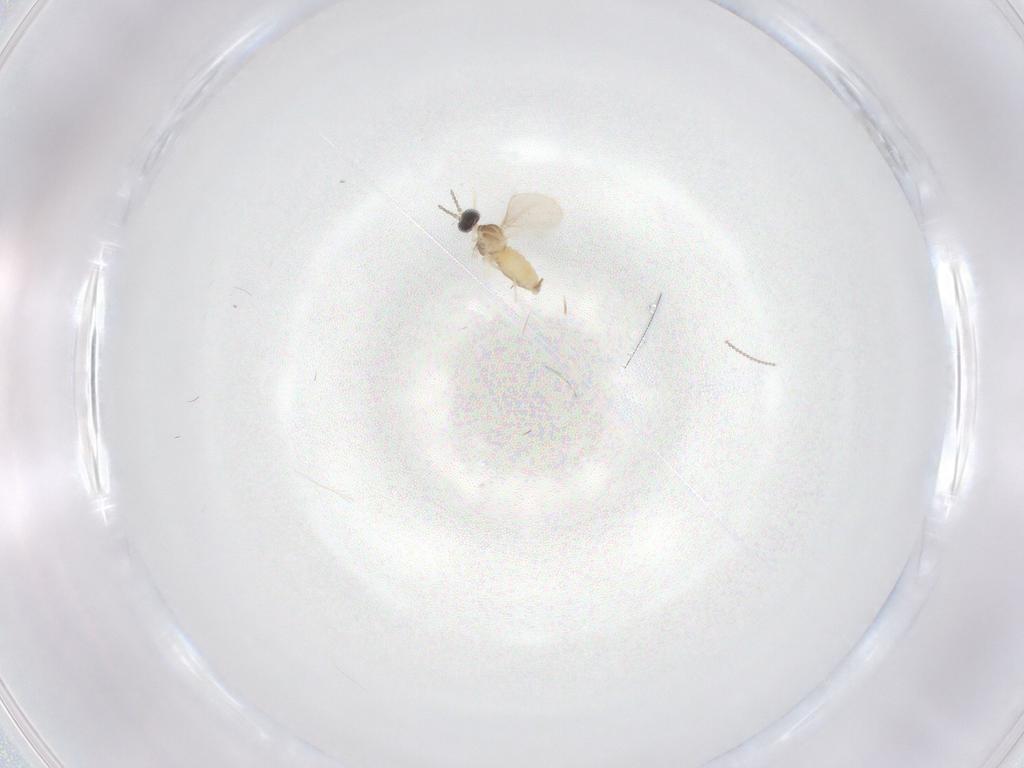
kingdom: Animalia
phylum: Arthropoda
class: Insecta
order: Diptera
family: Cecidomyiidae
